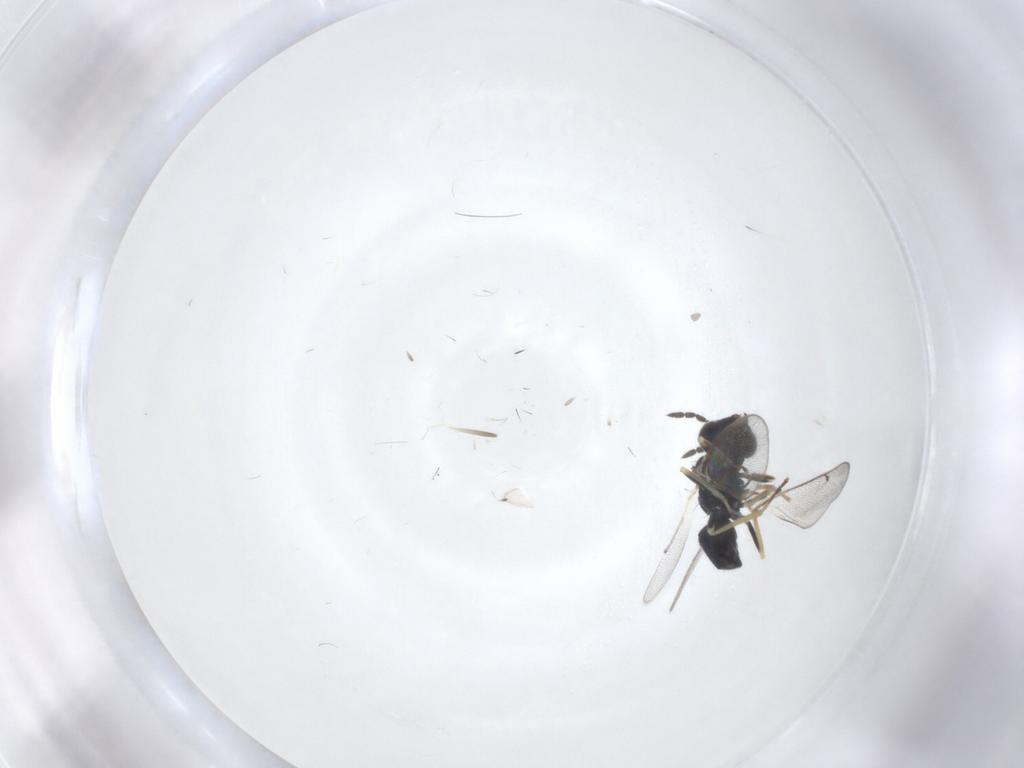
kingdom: Animalia
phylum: Arthropoda
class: Insecta
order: Hymenoptera
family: Eulophidae
